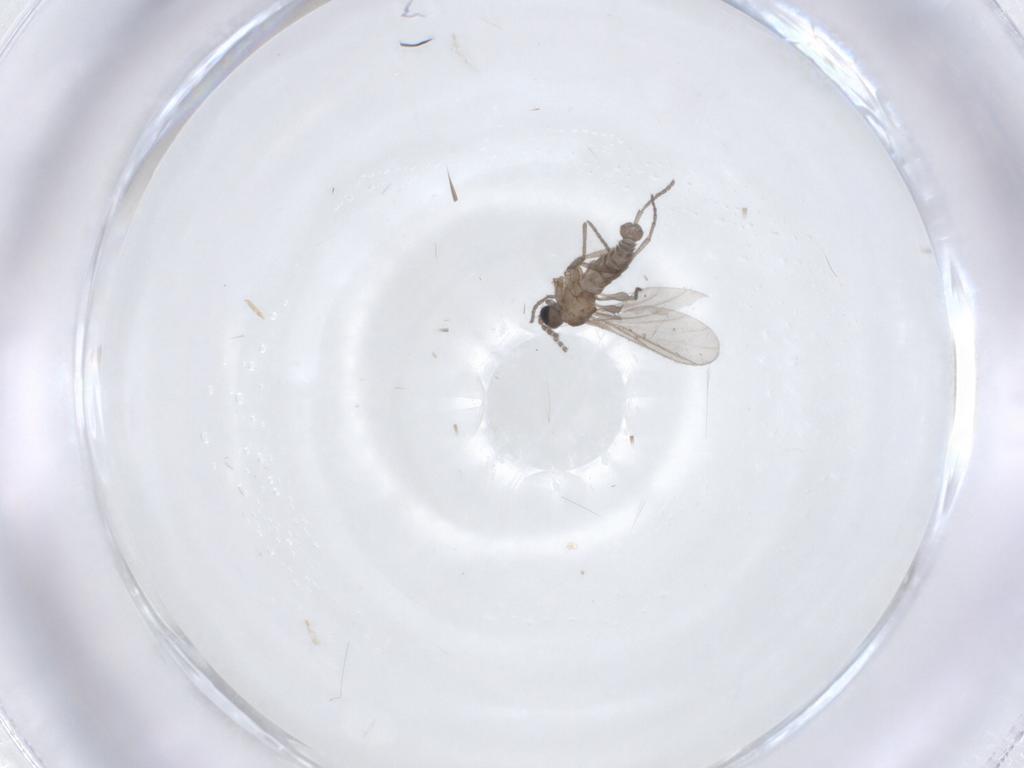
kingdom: Animalia
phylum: Arthropoda
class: Insecta
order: Diptera
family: Sciaridae
